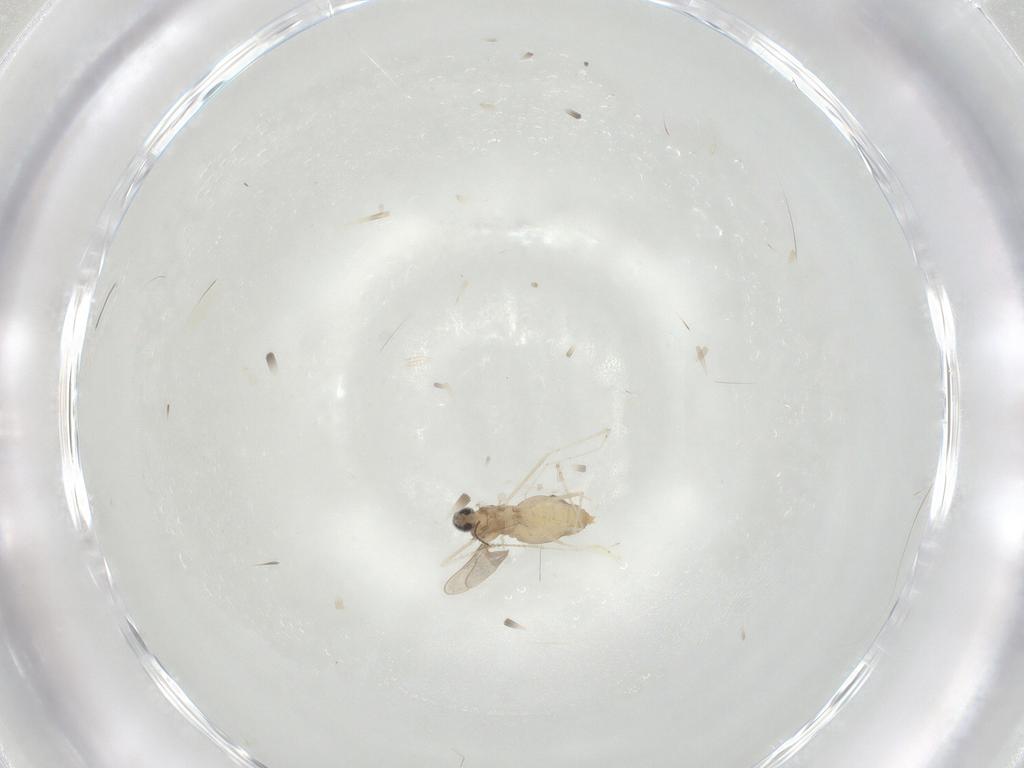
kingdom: Animalia
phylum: Arthropoda
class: Insecta
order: Diptera
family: Cecidomyiidae
